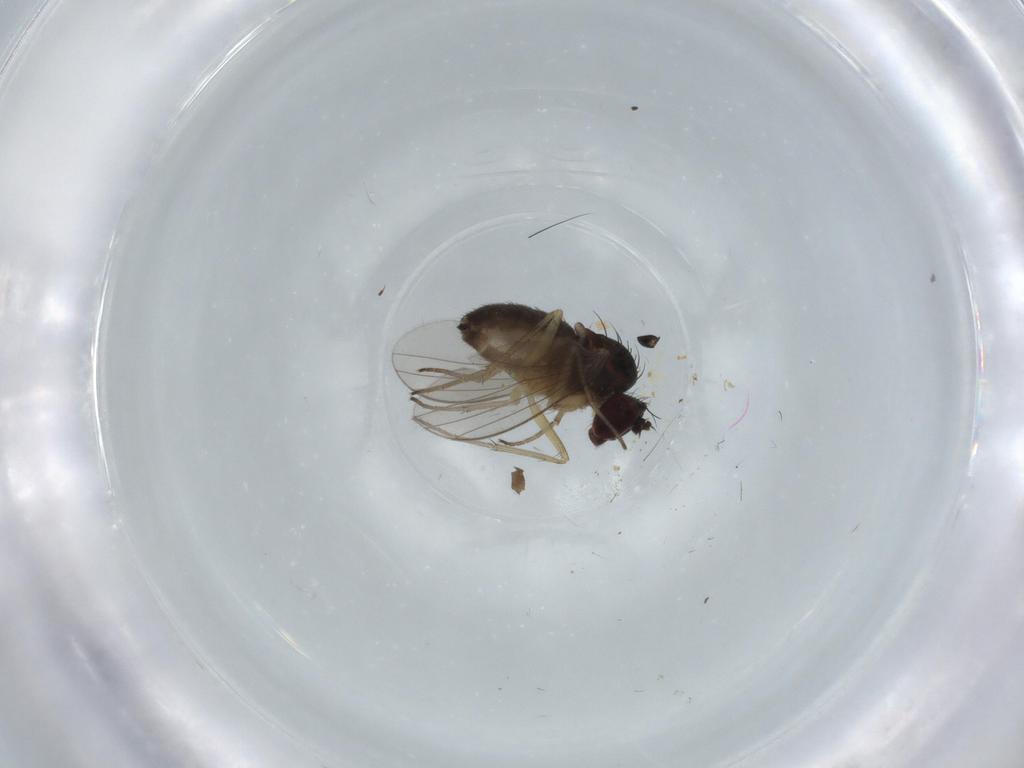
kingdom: Animalia
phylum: Arthropoda
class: Insecta
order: Diptera
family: Dolichopodidae
